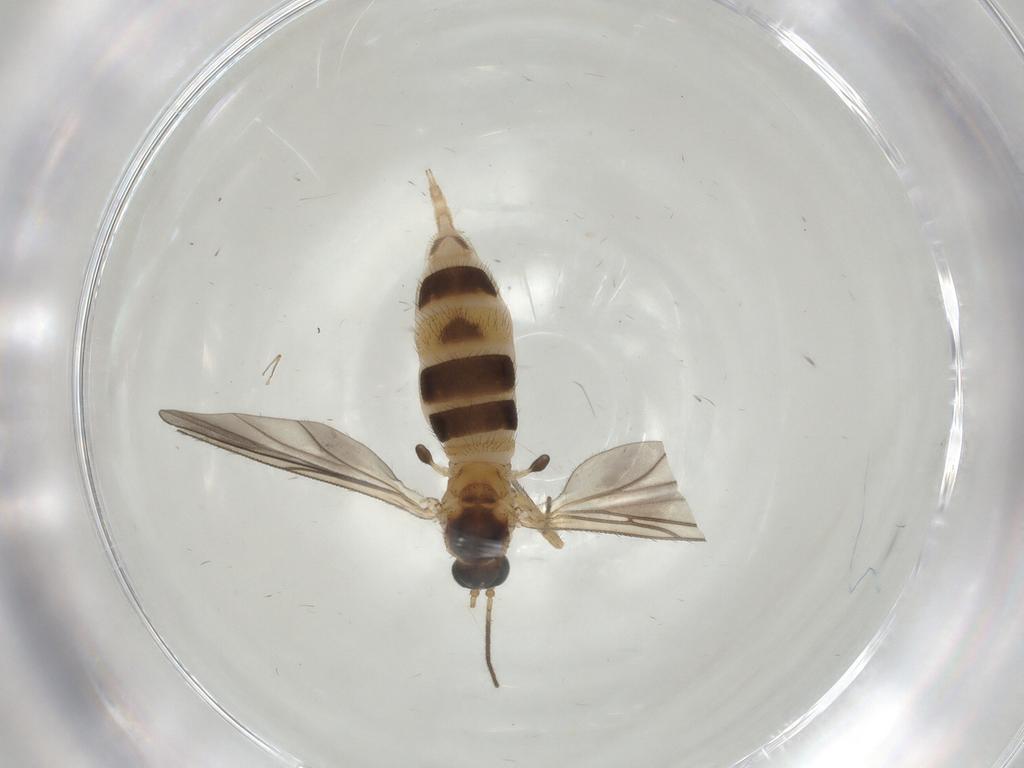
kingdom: Animalia
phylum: Arthropoda
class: Insecta
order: Diptera
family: Sciaridae
